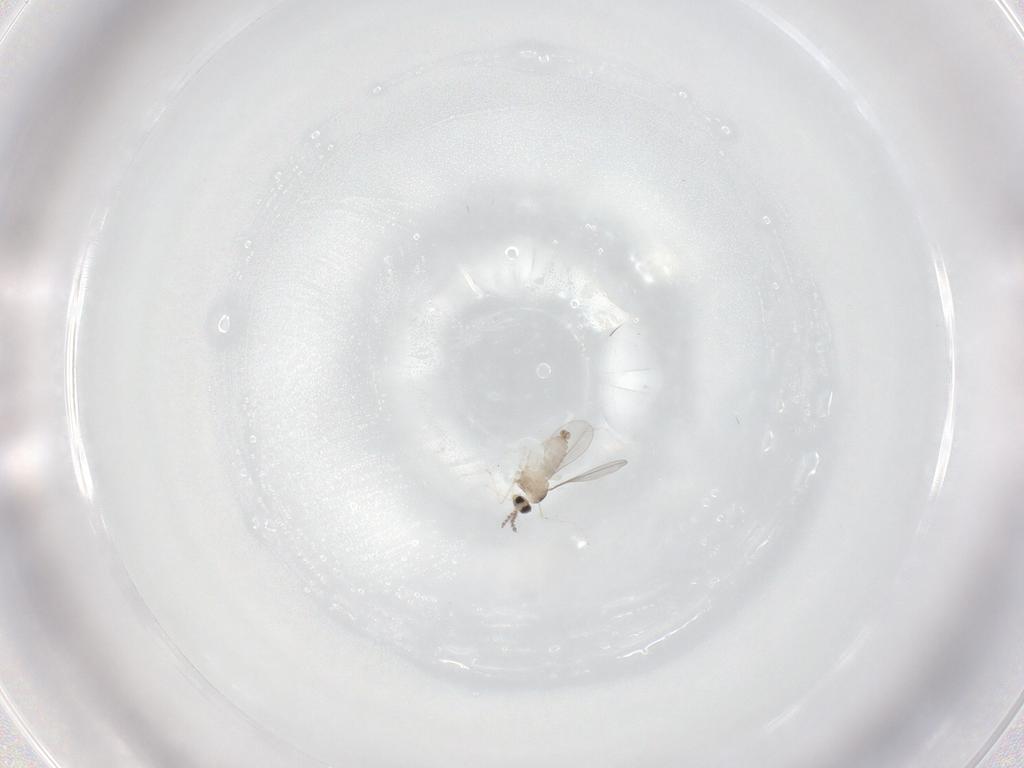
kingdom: Animalia
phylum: Arthropoda
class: Insecta
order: Diptera
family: Phoridae
